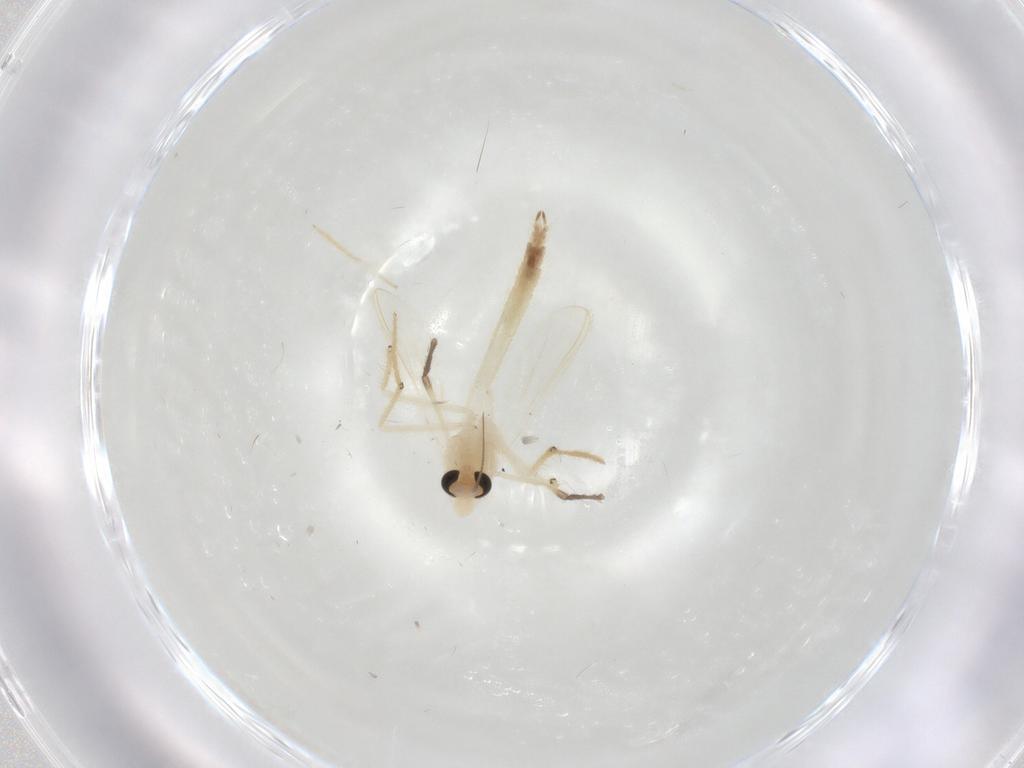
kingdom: Animalia
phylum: Arthropoda
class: Insecta
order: Diptera
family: Chironomidae
